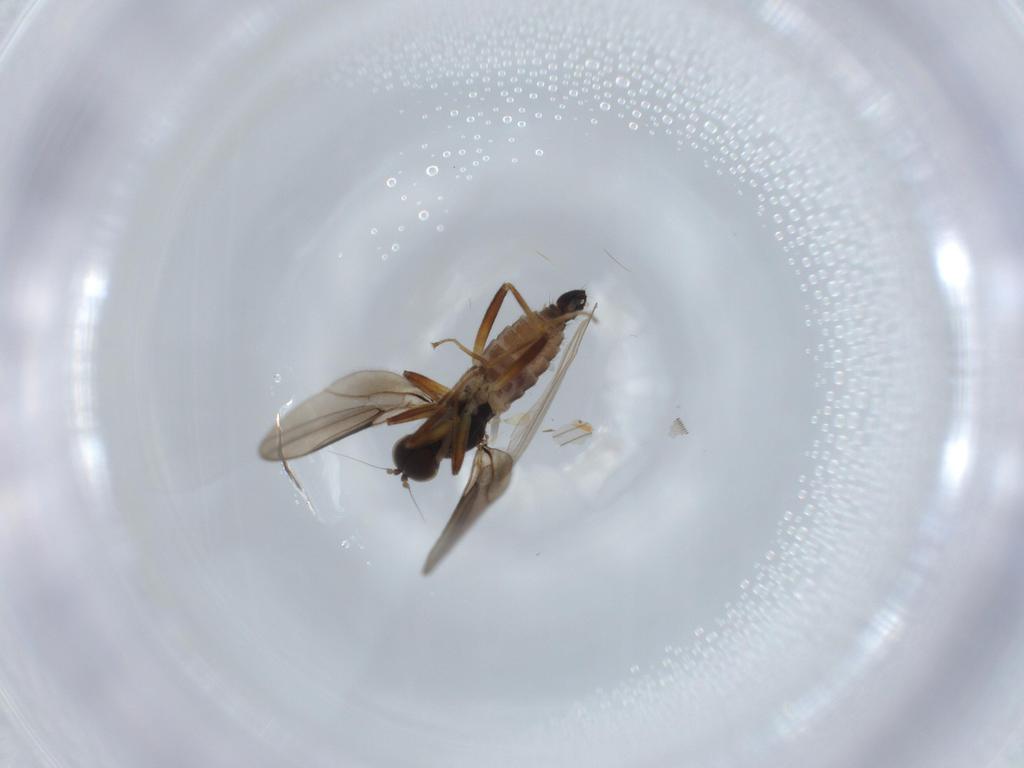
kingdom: Animalia
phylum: Arthropoda
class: Insecta
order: Diptera
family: Hybotidae
